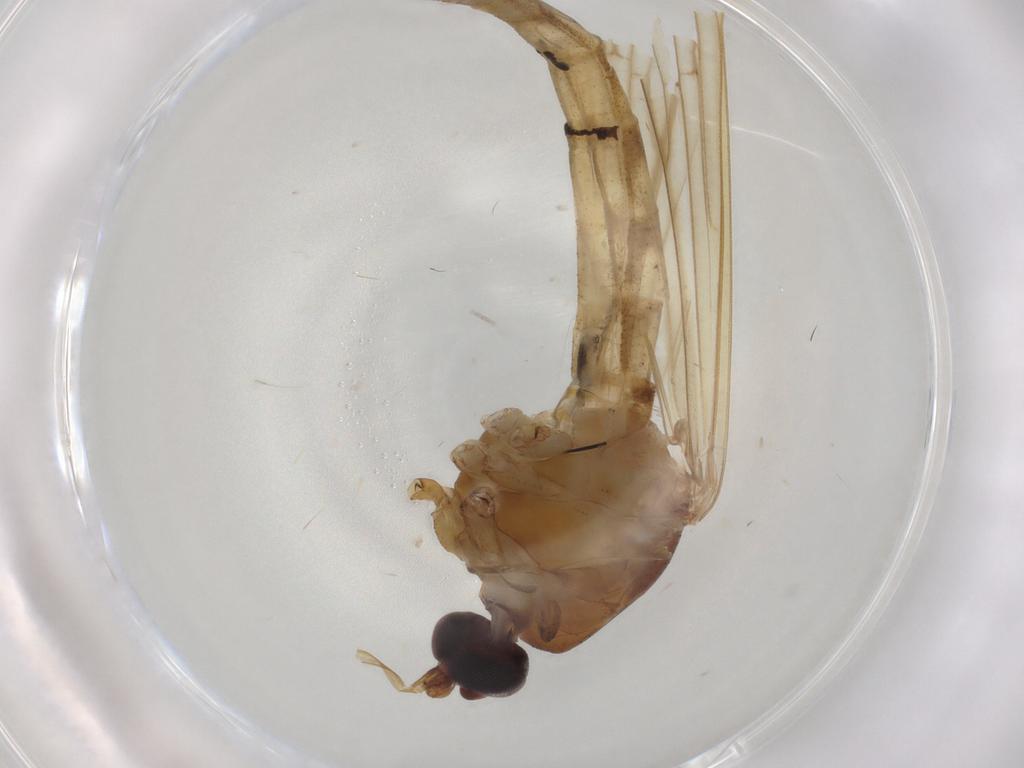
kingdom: Animalia
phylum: Arthropoda
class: Insecta
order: Diptera
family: Culicidae
